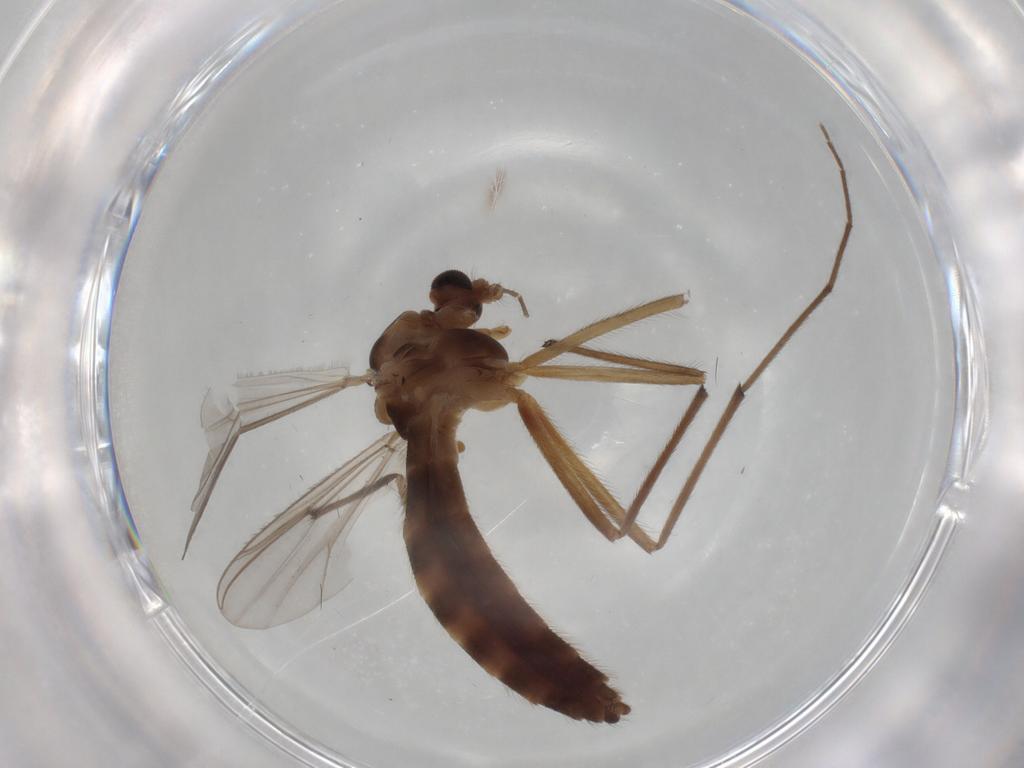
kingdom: Animalia
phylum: Arthropoda
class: Insecta
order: Diptera
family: Chironomidae
